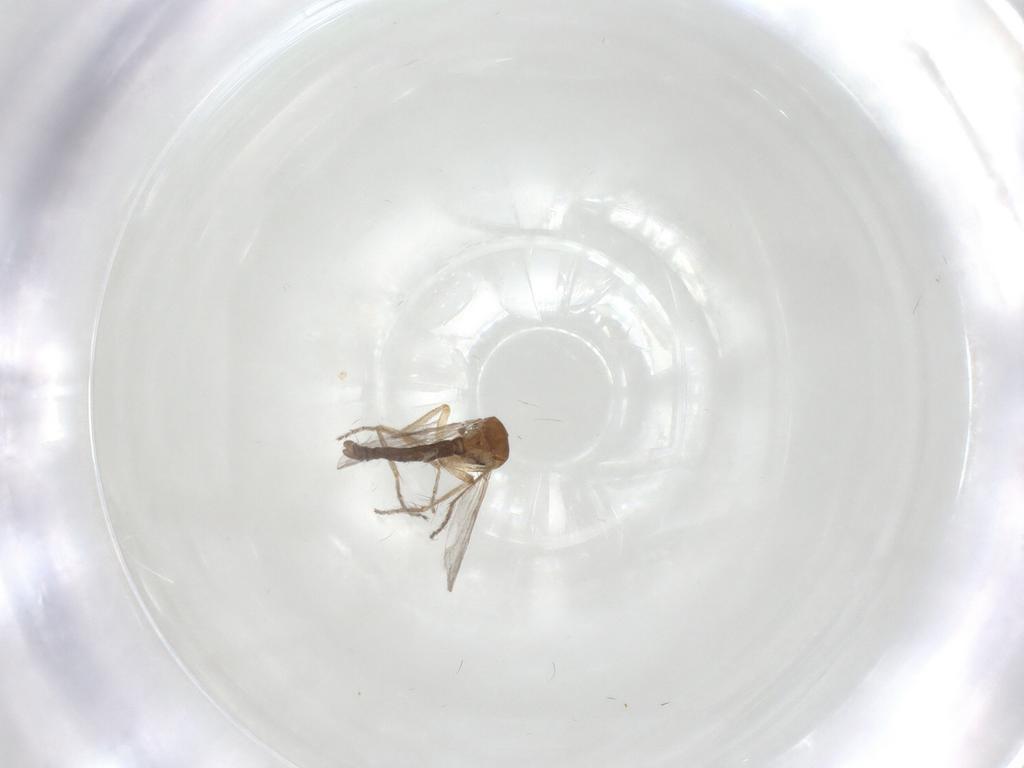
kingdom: Animalia
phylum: Arthropoda
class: Insecta
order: Diptera
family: Ceratopogonidae
